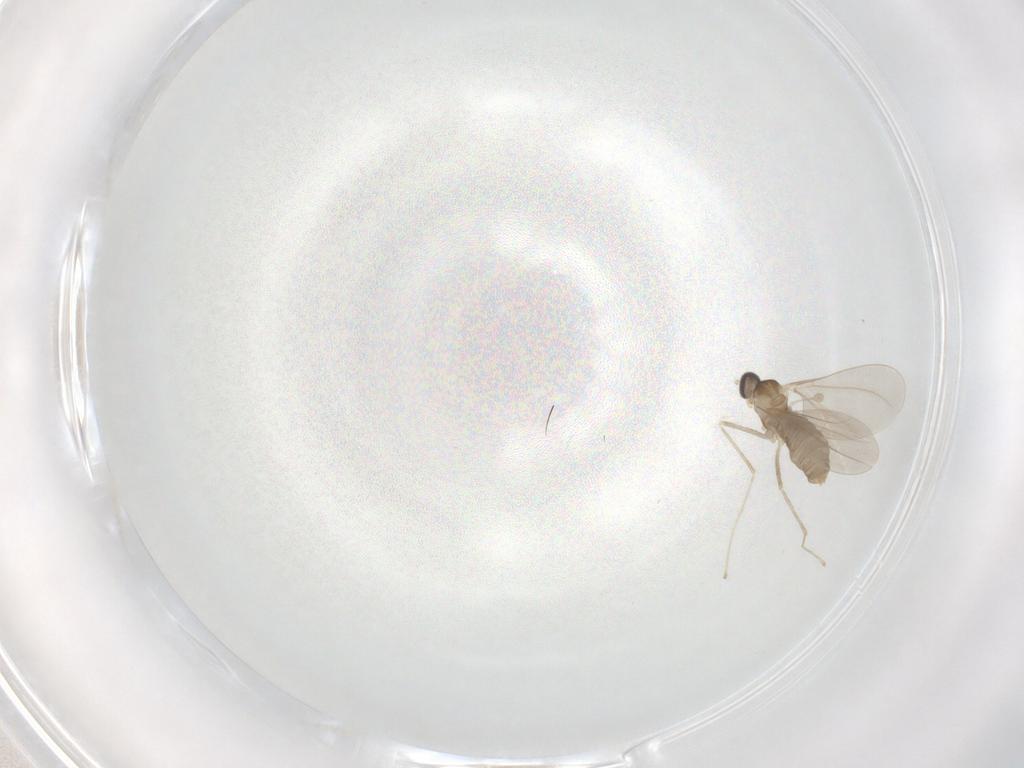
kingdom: Animalia
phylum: Arthropoda
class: Insecta
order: Diptera
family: Cecidomyiidae
